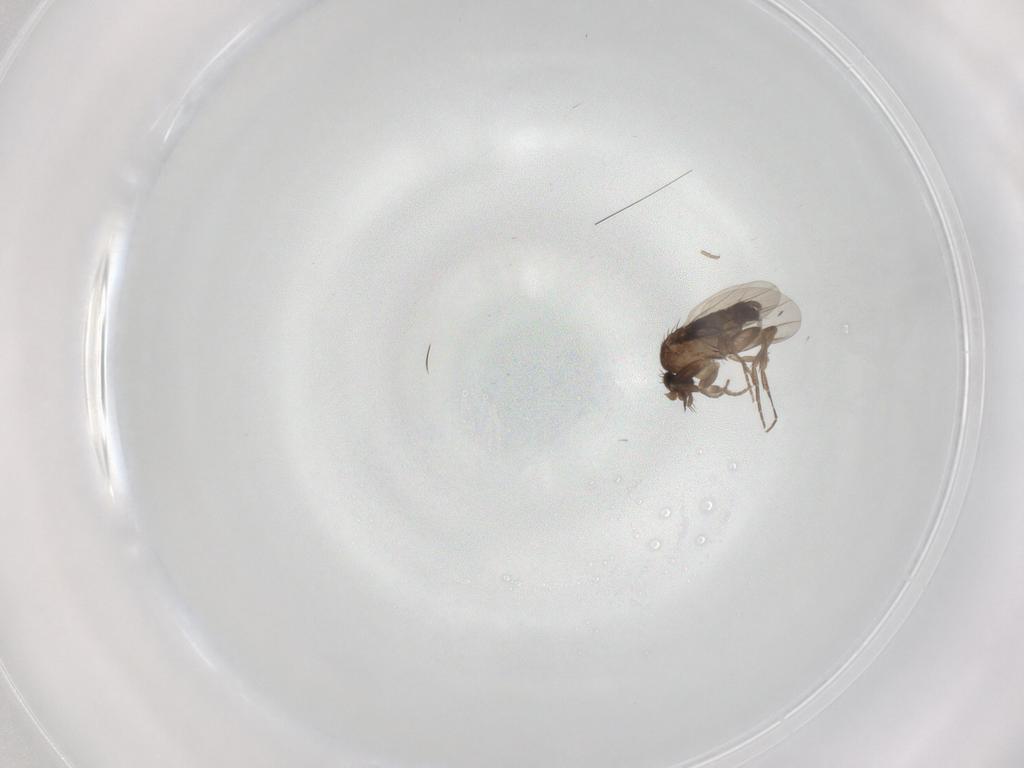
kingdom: Animalia
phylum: Arthropoda
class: Insecta
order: Diptera
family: Phoridae
